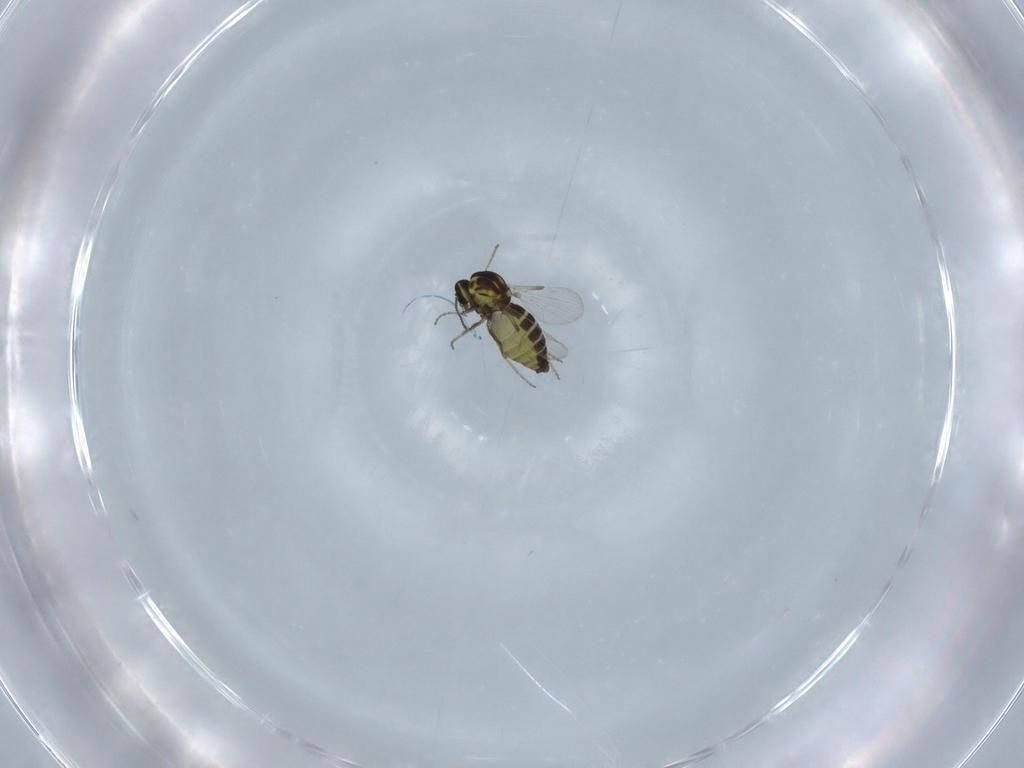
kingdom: Animalia
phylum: Arthropoda
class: Insecta
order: Diptera
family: Ceratopogonidae
